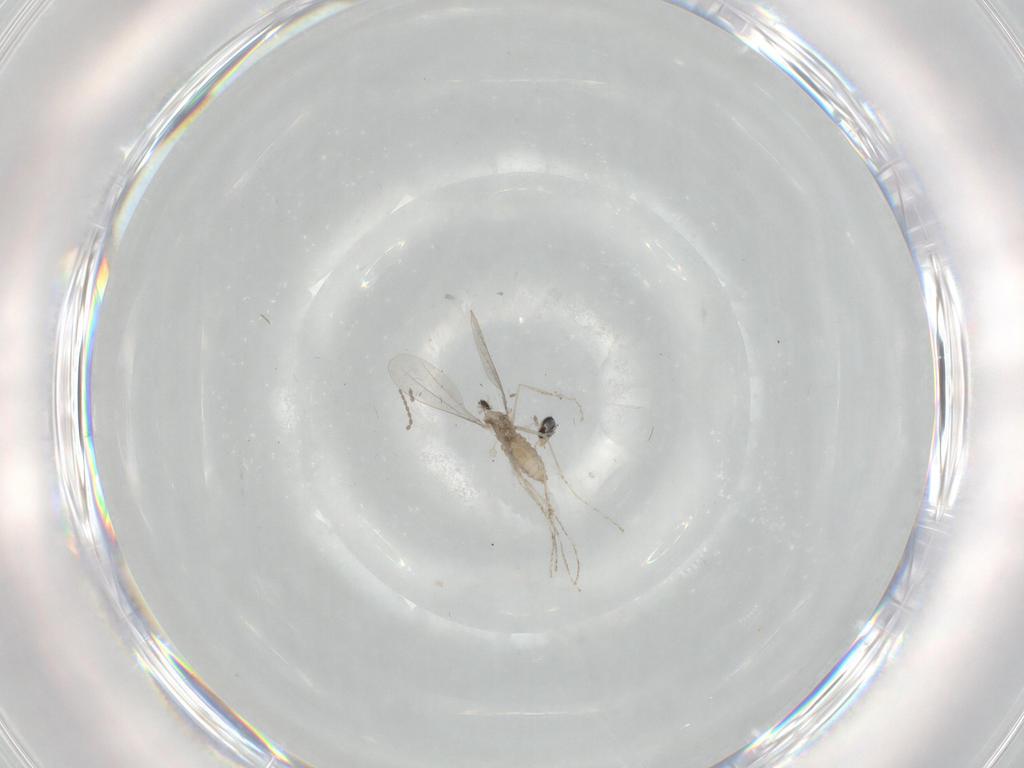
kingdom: Animalia
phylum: Arthropoda
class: Insecta
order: Diptera
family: Cecidomyiidae
